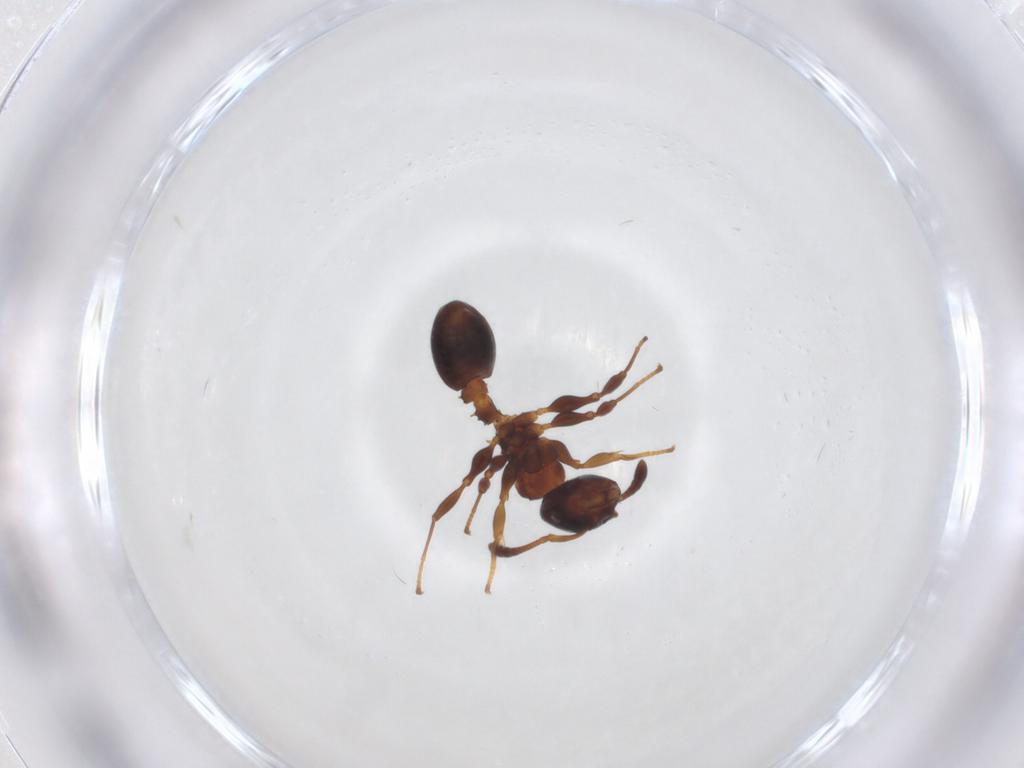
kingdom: Animalia
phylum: Arthropoda
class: Insecta
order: Hymenoptera
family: Formicidae
